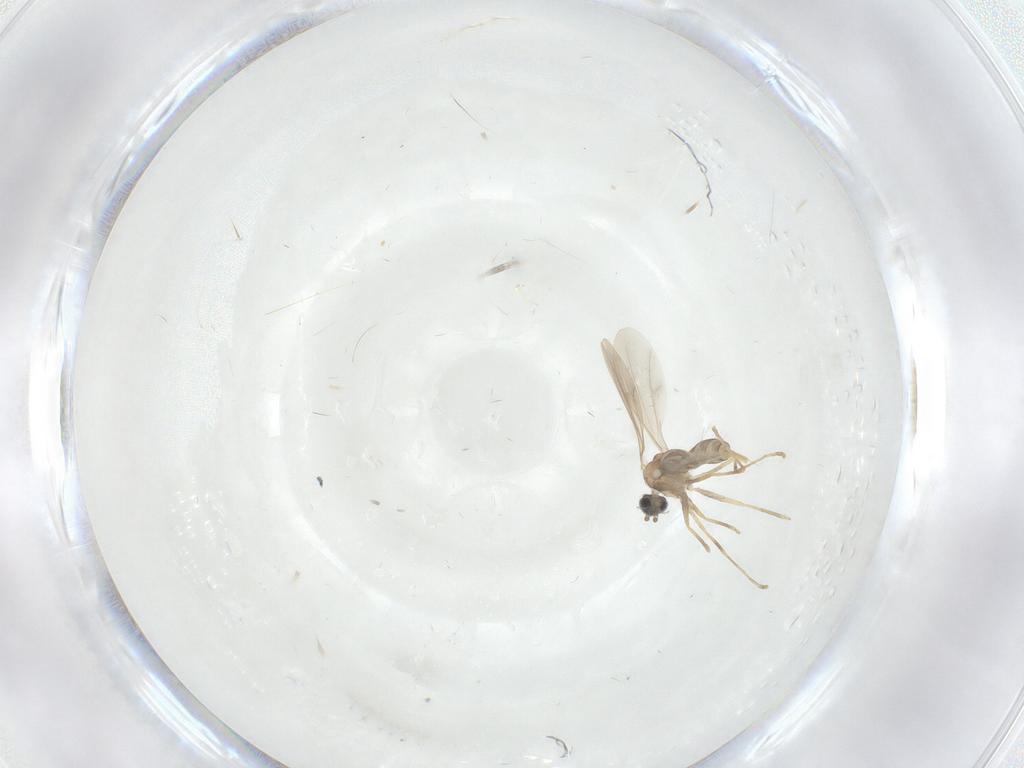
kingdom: Animalia
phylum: Arthropoda
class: Insecta
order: Diptera
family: Cecidomyiidae
